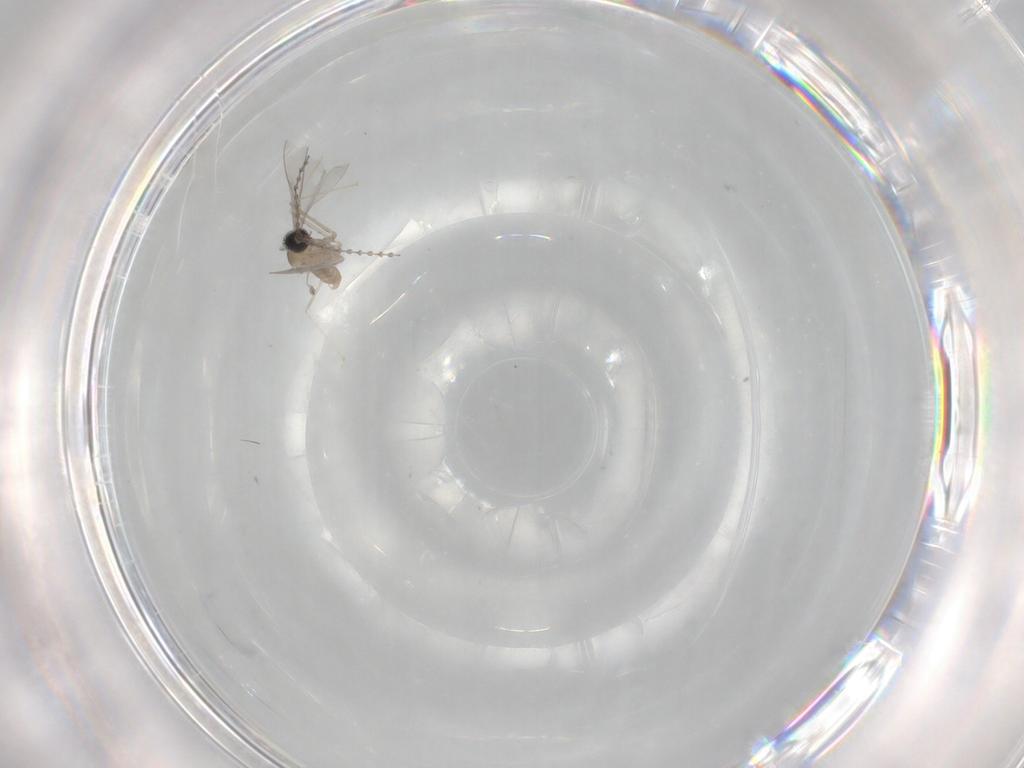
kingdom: Animalia
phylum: Arthropoda
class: Insecta
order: Diptera
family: Cecidomyiidae
